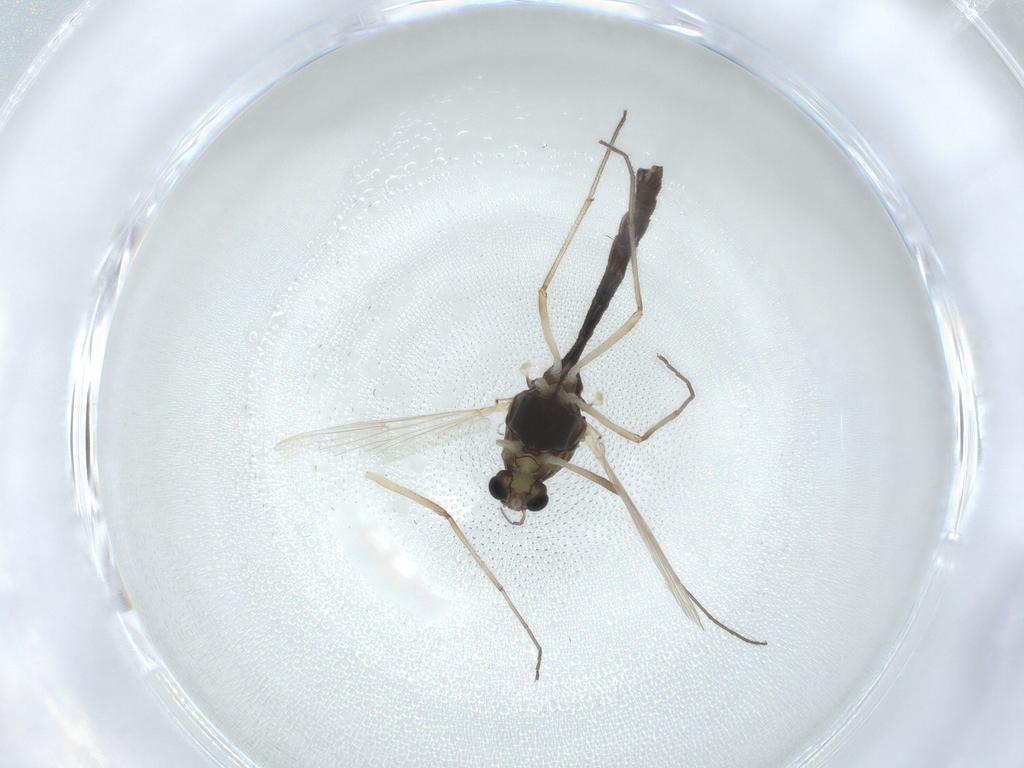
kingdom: Animalia
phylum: Arthropoda
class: Insecta
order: Diptera
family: Chironomidae
